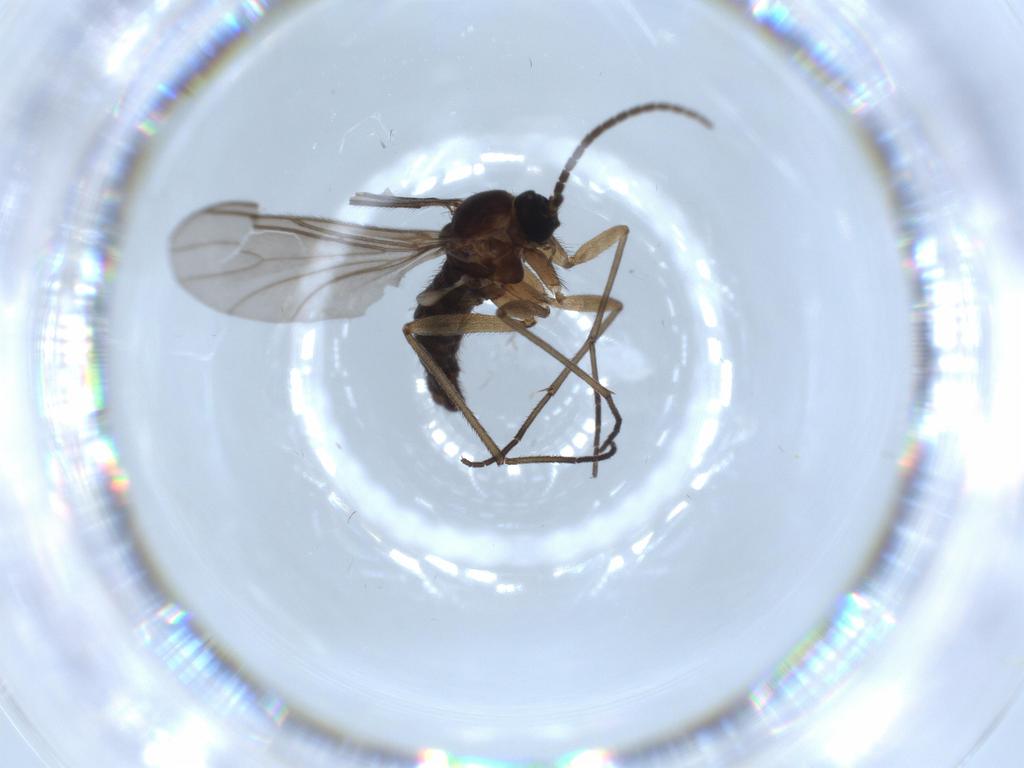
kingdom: Animalia
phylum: Arthropoda
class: Insecta
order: Diptera
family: Sciaridae
